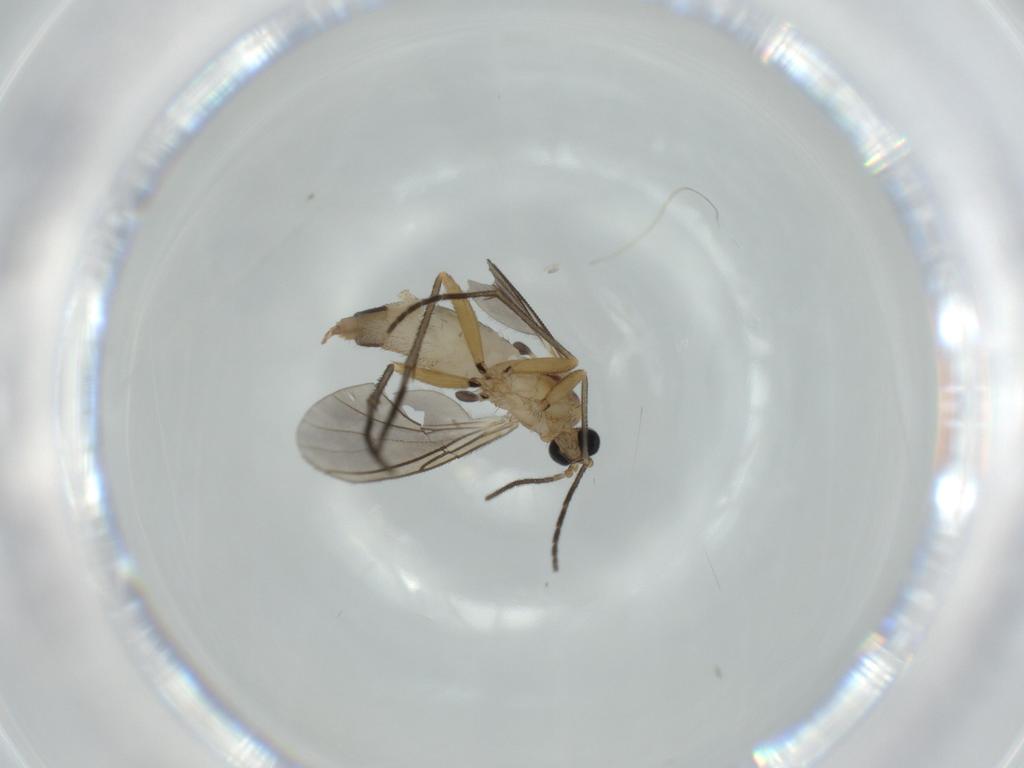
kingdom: Animalia
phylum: Arthropoda
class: Insecta
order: Diptera
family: Sciaridae
